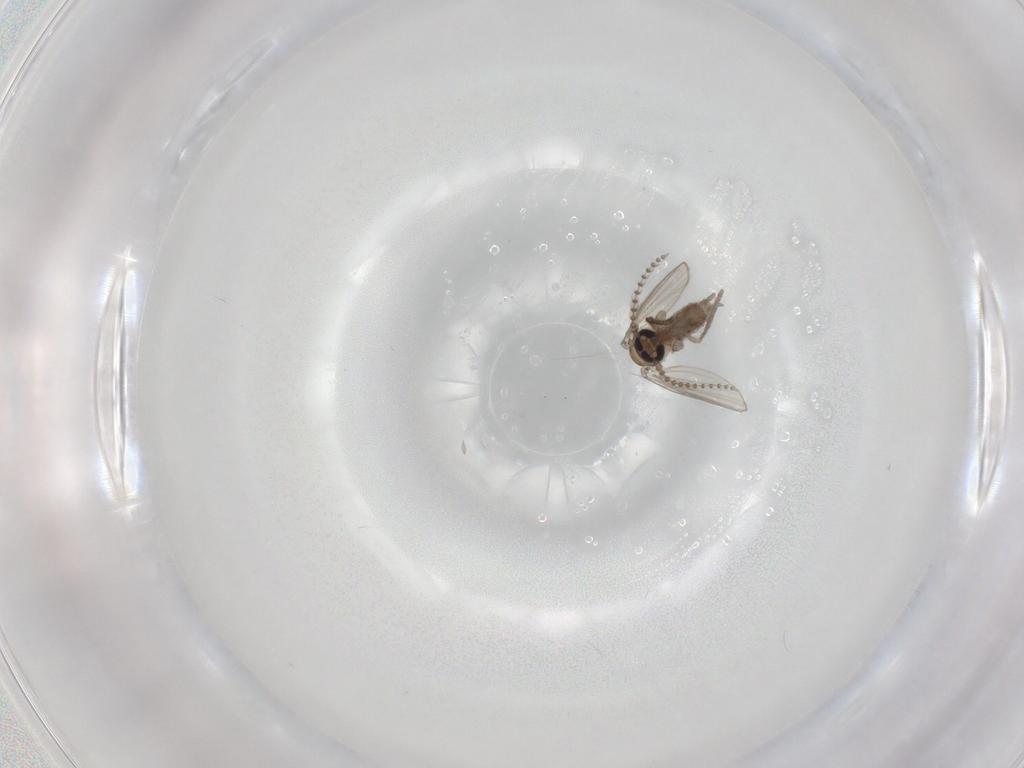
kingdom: Animalia
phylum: Arthropoda
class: Insecta
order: Diptera
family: Psychodidae
